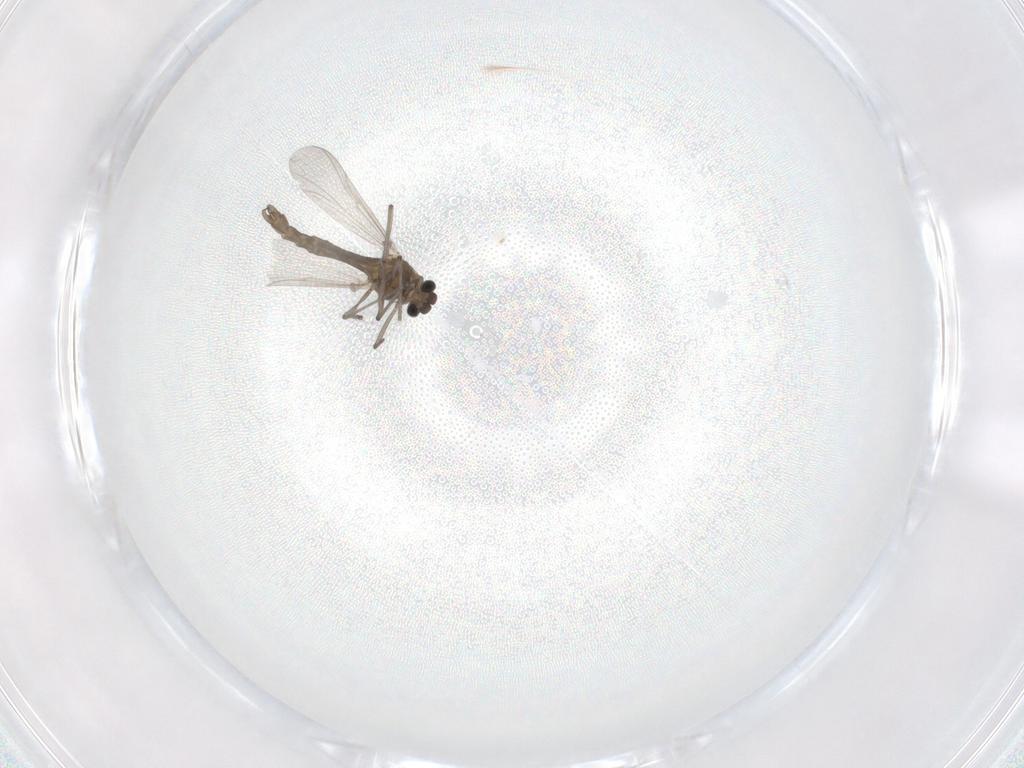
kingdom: Animalia
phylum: Arthropoda
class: Insecta
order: Diptera
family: Chironomidae
